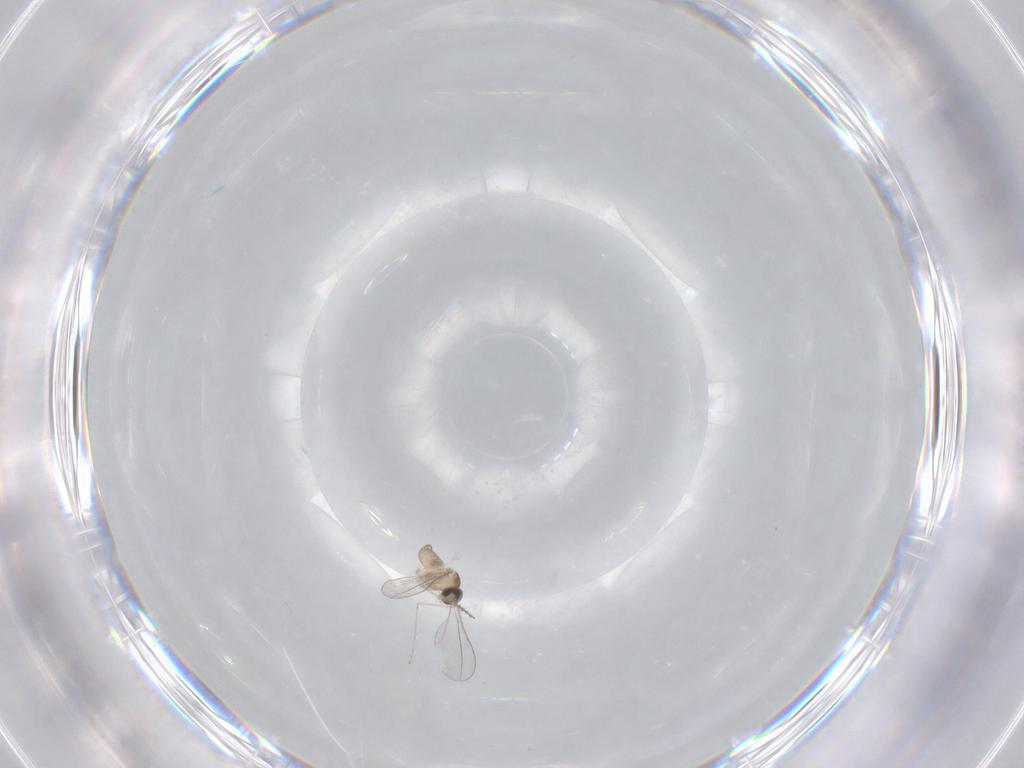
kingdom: Animalia
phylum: Arthropoda
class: Insecta
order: Diptera
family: Cecidomyiidae
